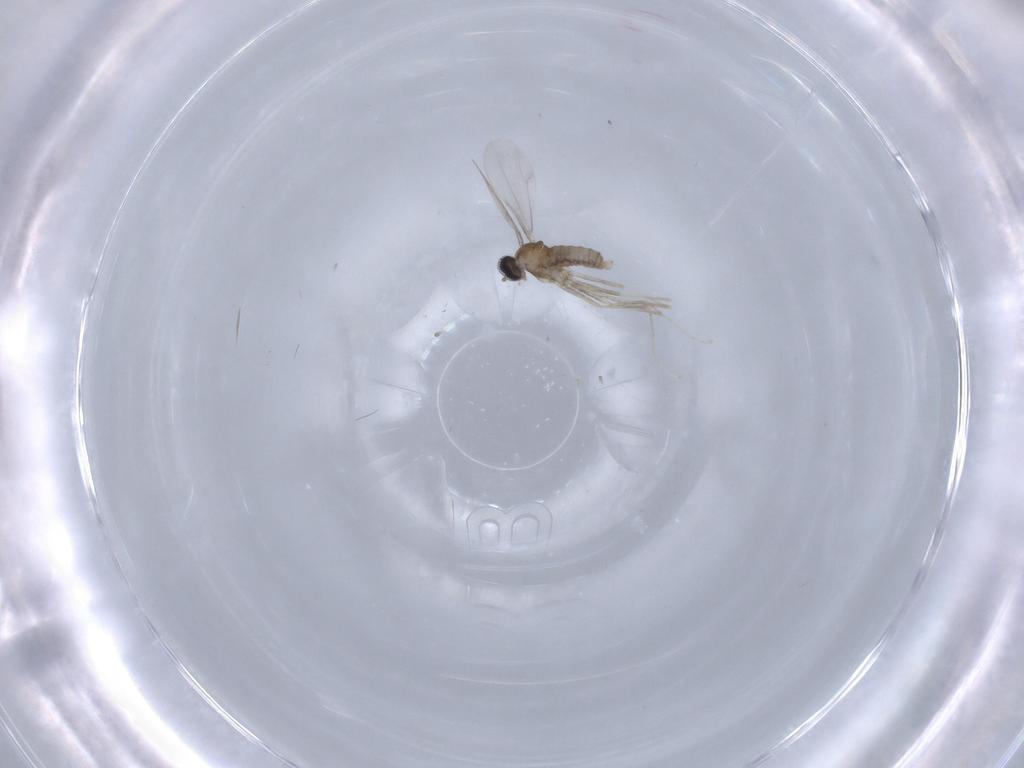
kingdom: Animalia
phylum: Arthropoda
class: Insecta
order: Diptera
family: Cecidomyiidae
